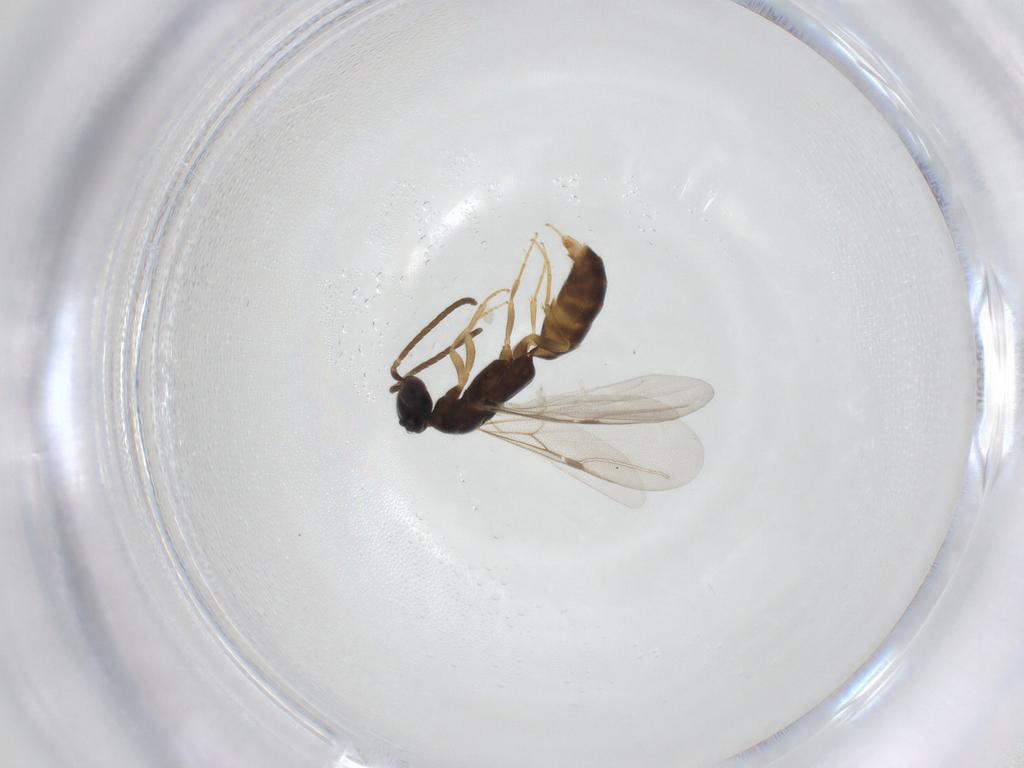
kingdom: Animalia
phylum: Arthropoda
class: Insecta
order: Hymenoptera
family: Bethylidae
